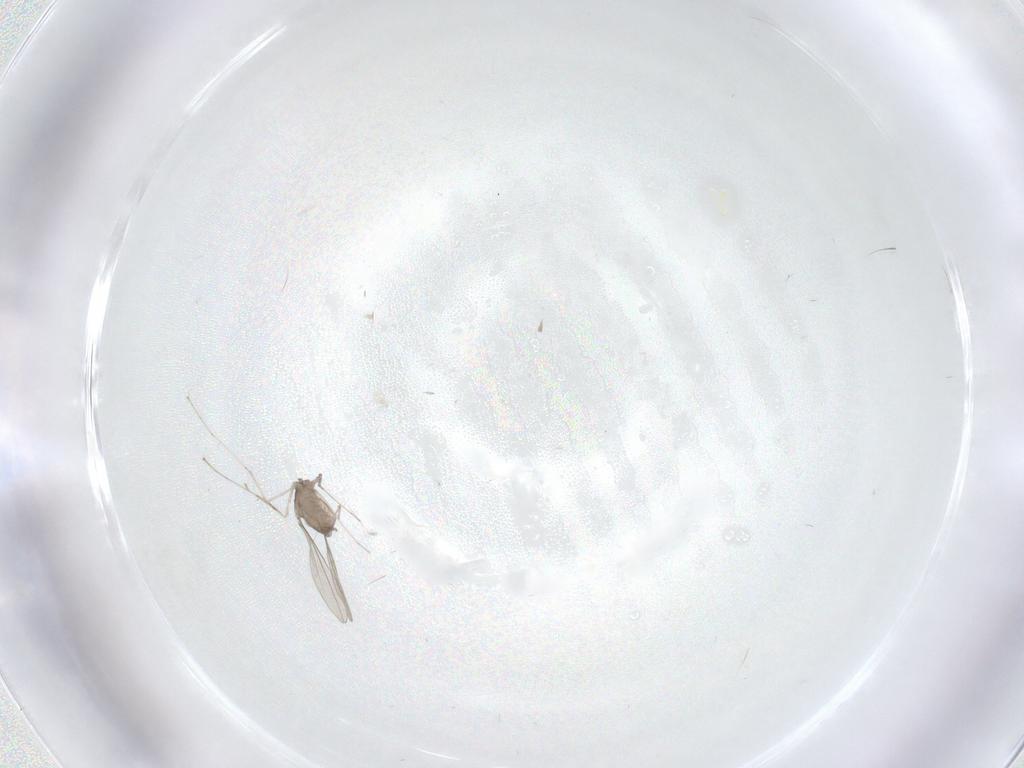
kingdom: Animalia
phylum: Arthropoda
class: Insecta
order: Diptera
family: Cecidomyiidae
